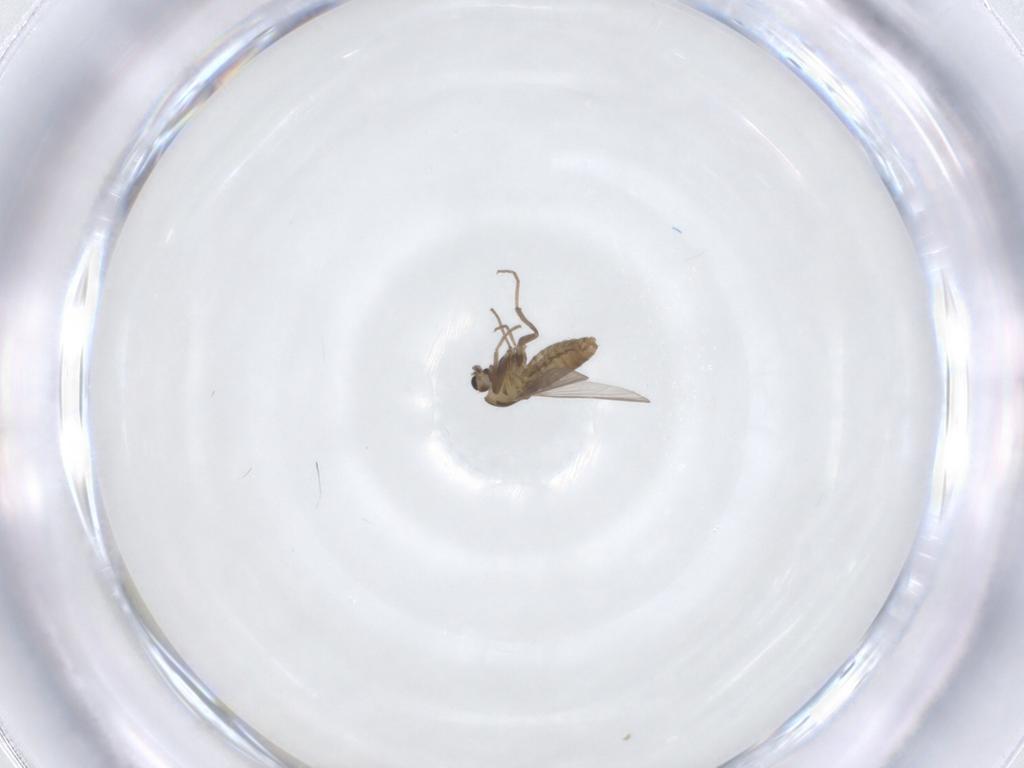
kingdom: Animalia
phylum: Arthropoda
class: Insecta
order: Diptera
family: Chironomidae
